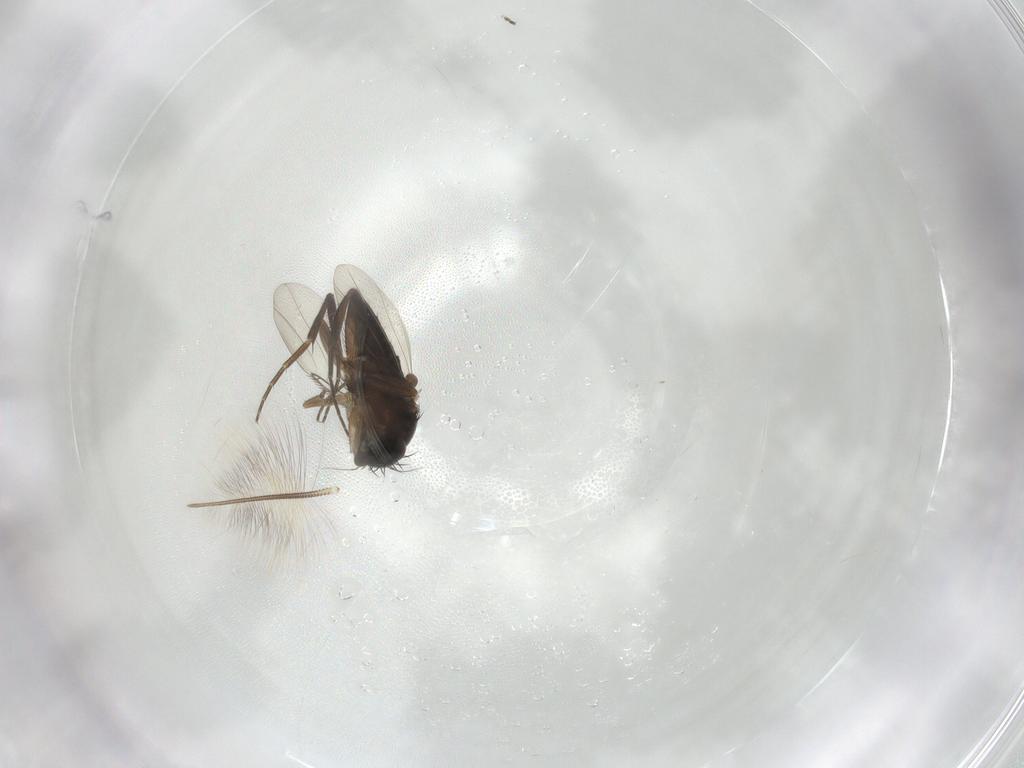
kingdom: Animalia
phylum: Arthropoda
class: Insecta
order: Diptera
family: Phoridae
